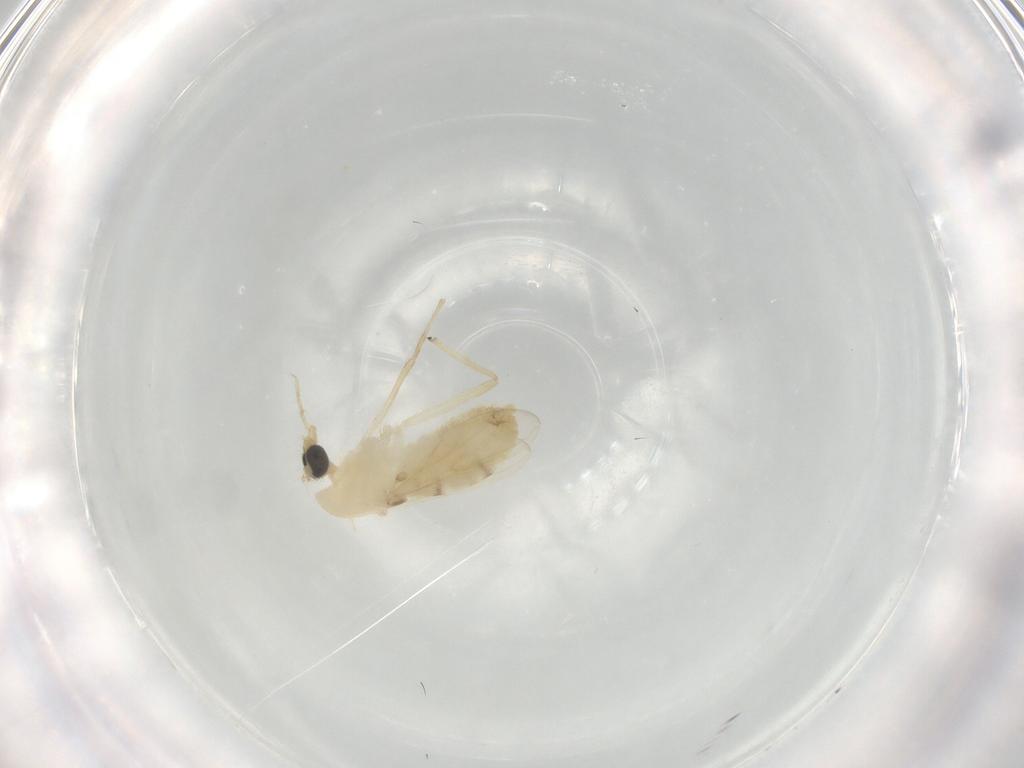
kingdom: Animalia
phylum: Arthropoda
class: Insecta
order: Diptera
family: Chironomidae
